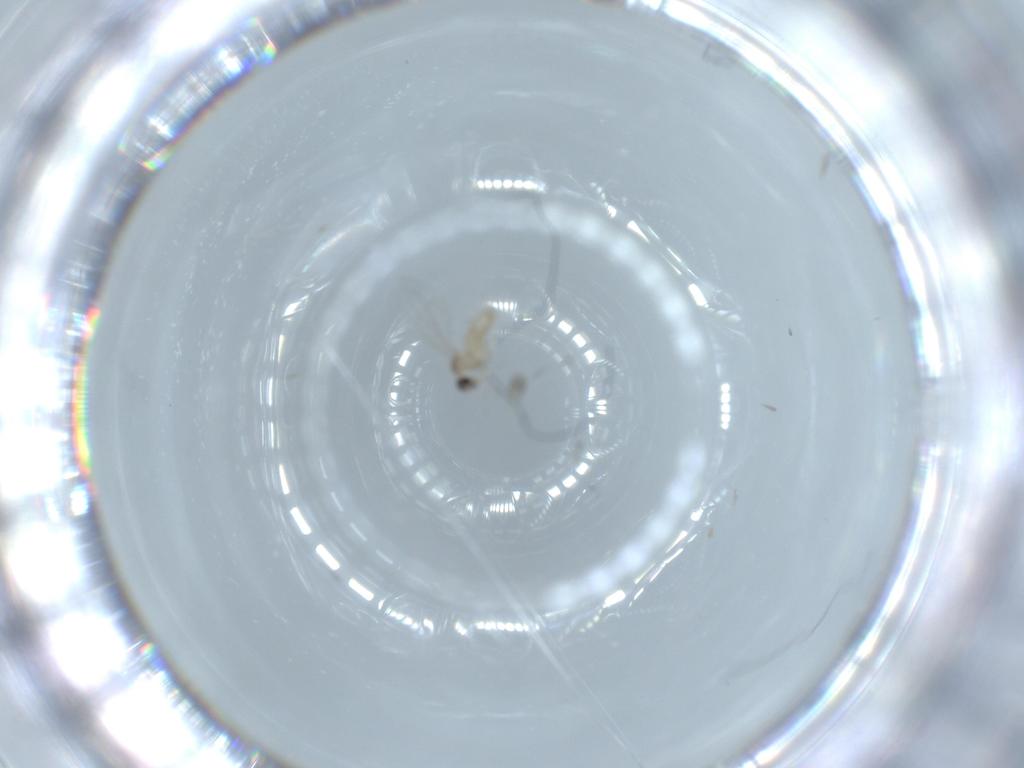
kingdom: Animalia
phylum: Arthropoda
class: Insecta
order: Diptera
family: Cecidomyiidae
